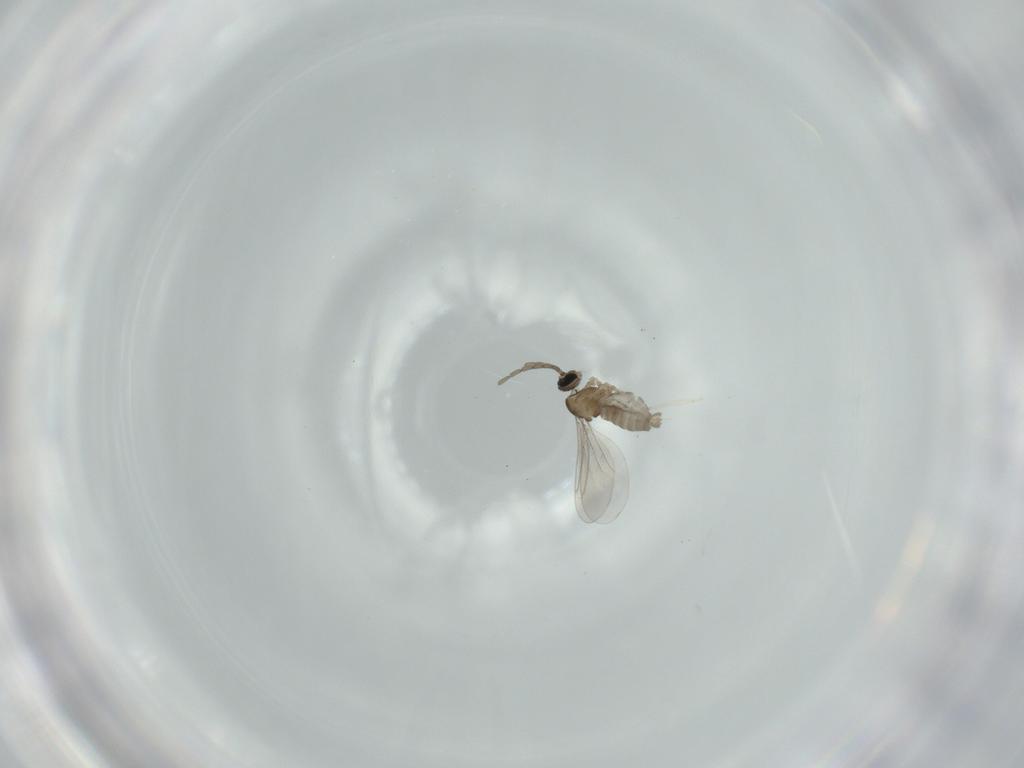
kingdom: Animalia
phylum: Arthropoda
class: Insecta
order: Diptera
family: Cecidomyiidae
